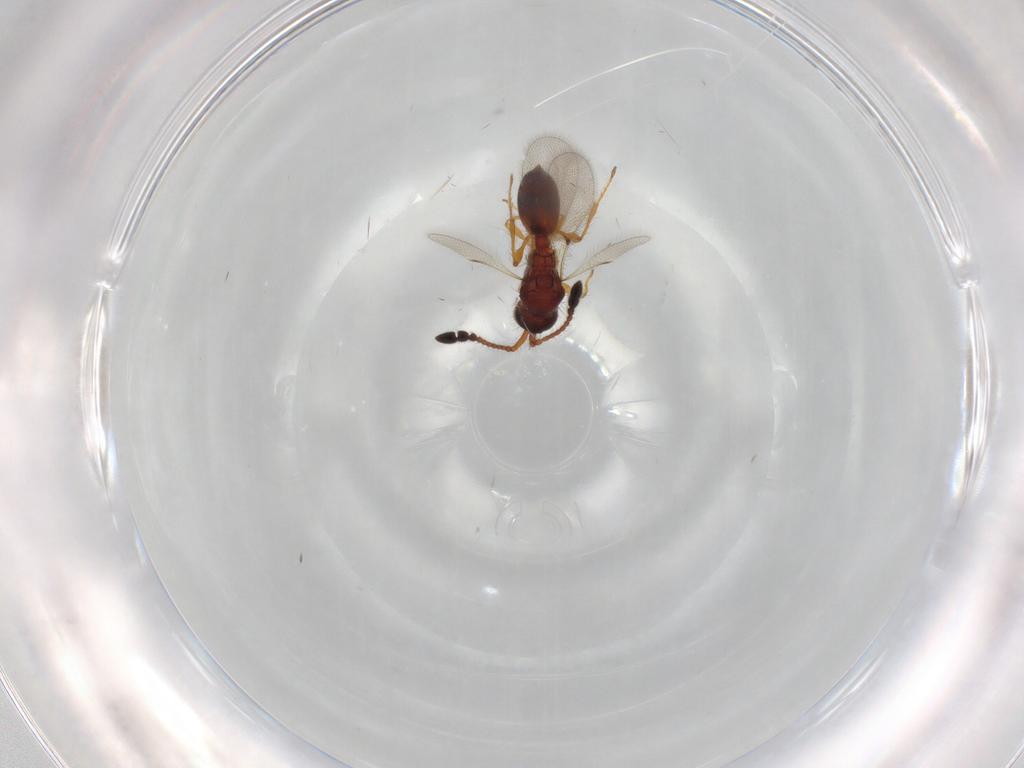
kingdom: Animalia
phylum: Arthropoda
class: Insecta
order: Hymenoptera
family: Diapriidae
